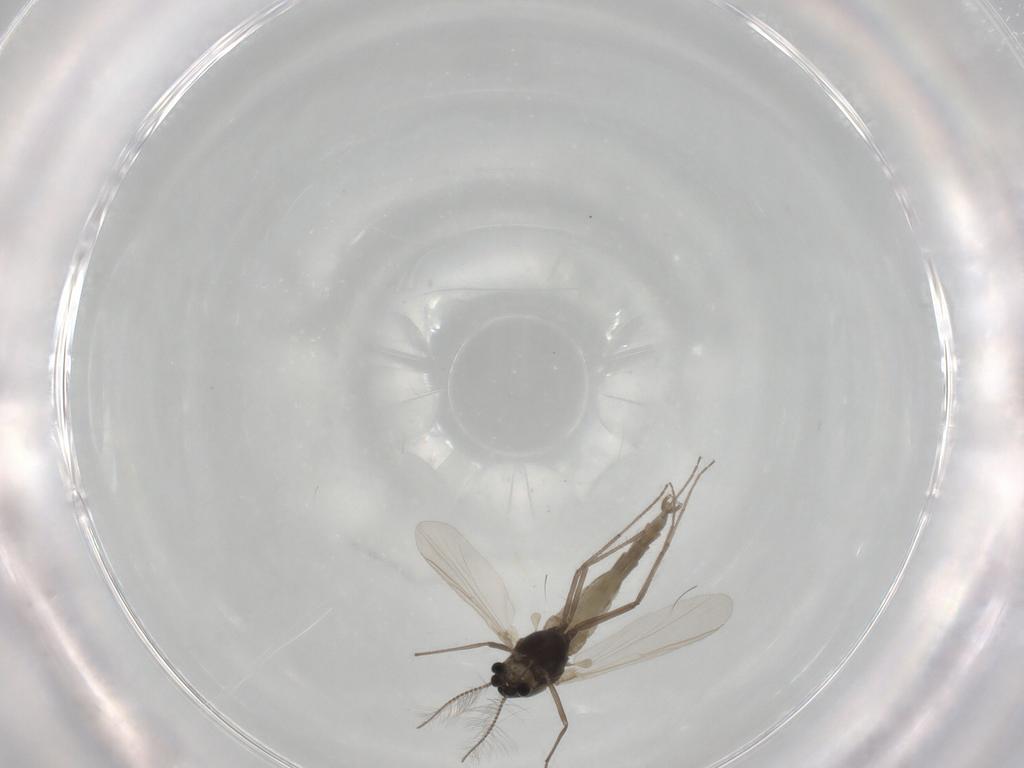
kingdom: Animalia
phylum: Arthropoda
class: Insecta
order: Diptera
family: Chironomidae
